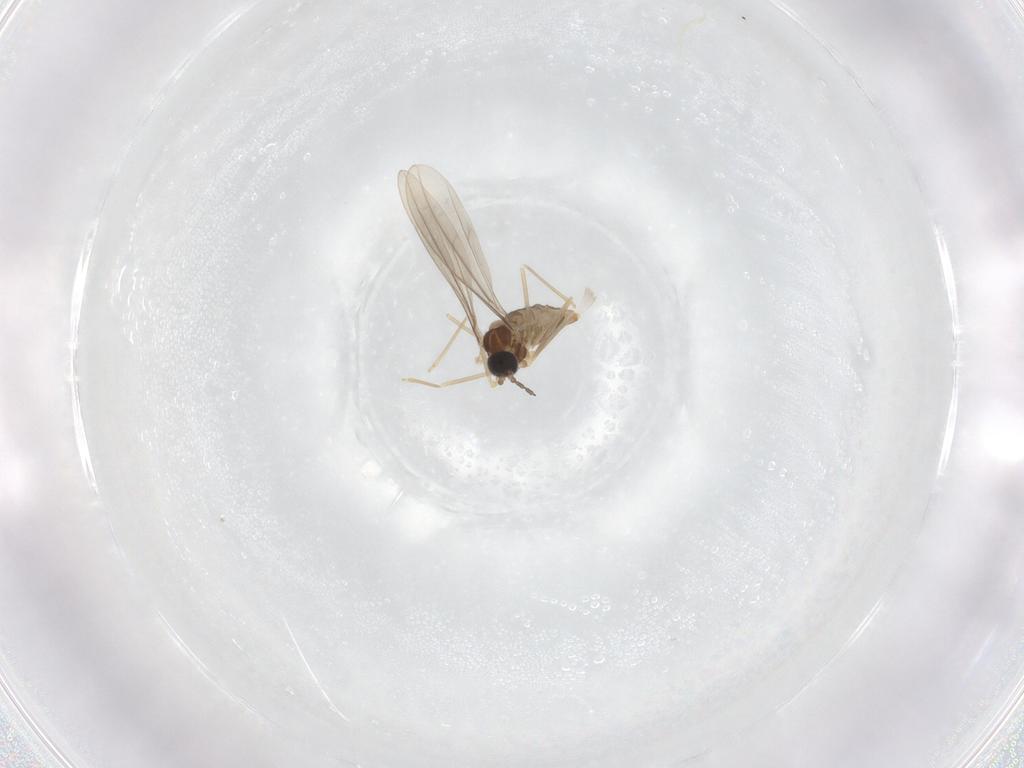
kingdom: Animalia
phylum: Arthropoda
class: Insecta
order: Diptera
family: Cecidomyiidae
